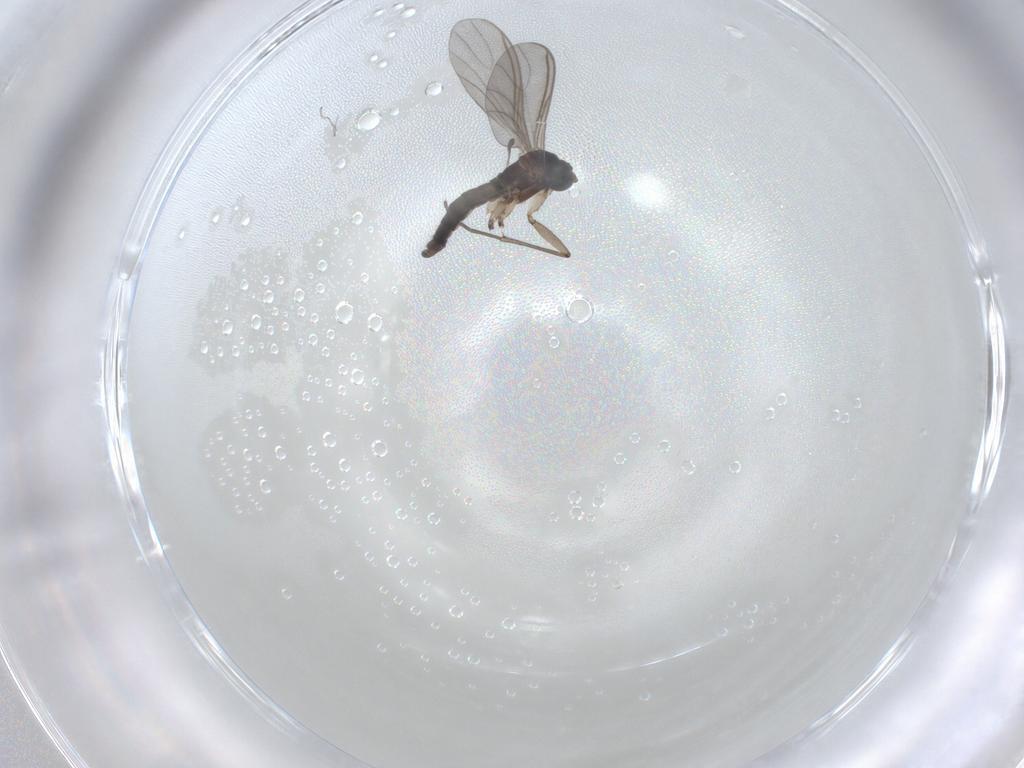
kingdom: Animalia
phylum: Arthropoda
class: Insecta
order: Diptera
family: Sciaridae
